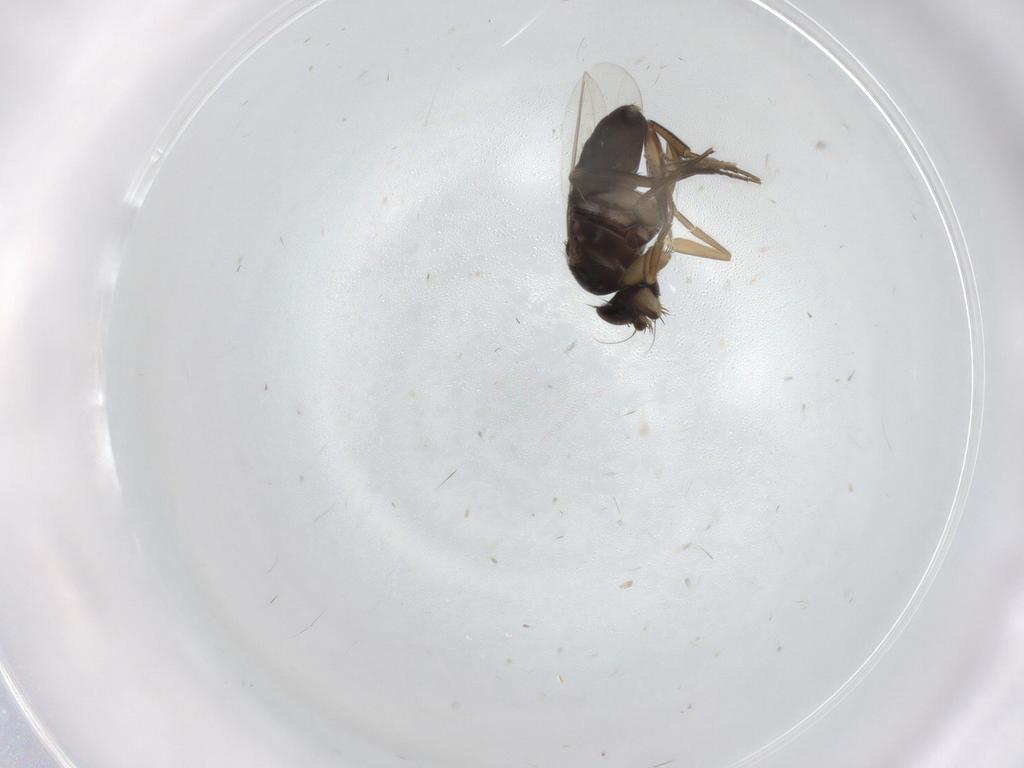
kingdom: Animalia
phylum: Arthropoda
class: Insecta
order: Diptera
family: Phoridae
